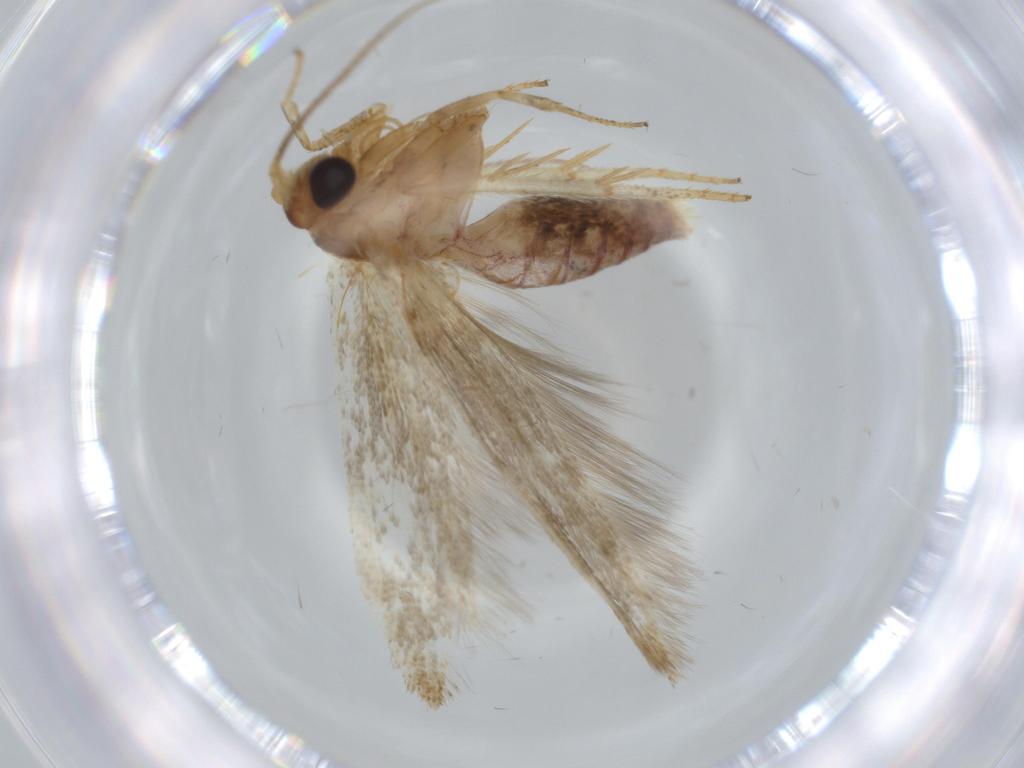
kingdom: Animalia
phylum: Arthropoda
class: Insecta
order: Lepidoptera
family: Coleophoridae
